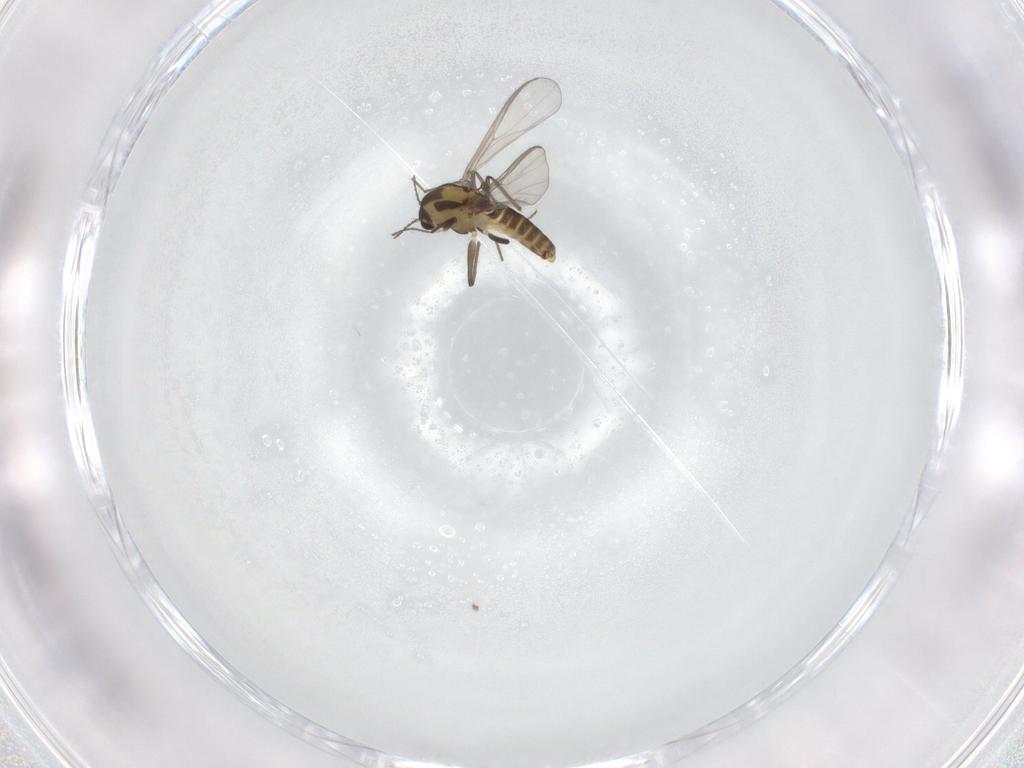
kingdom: Animalia
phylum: Arthropoda
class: Insecta
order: Diptera
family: Chironomidae
